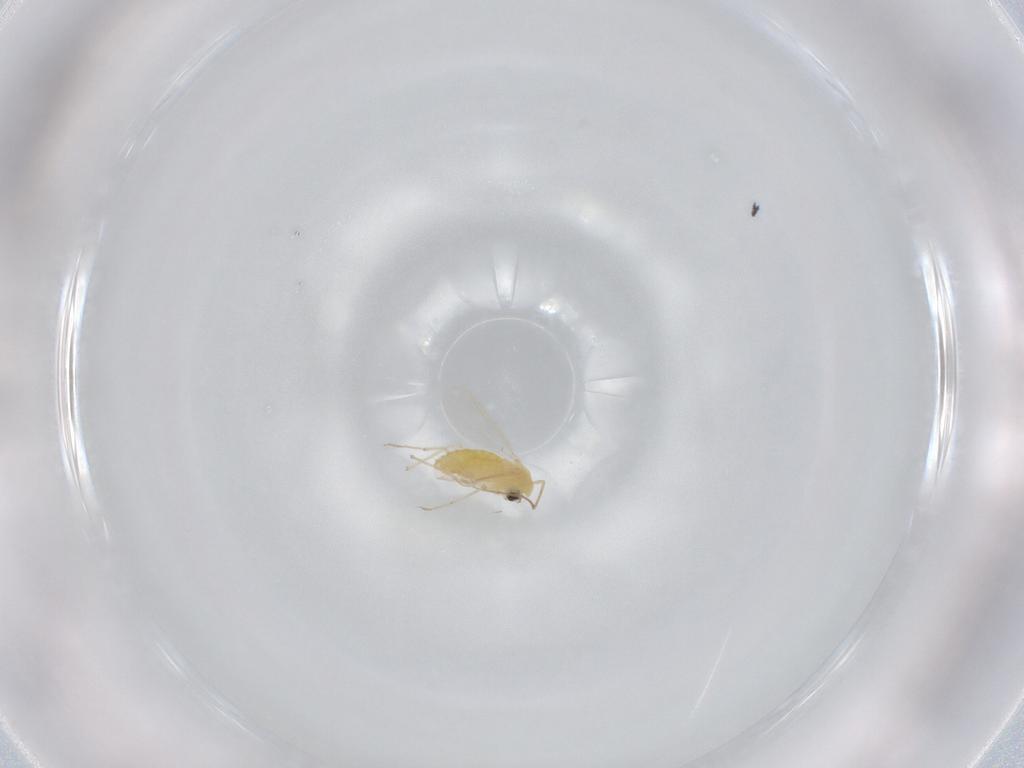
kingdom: Animalia
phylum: Arthropoda
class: Insecta
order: Diptera
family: Chironomidae
